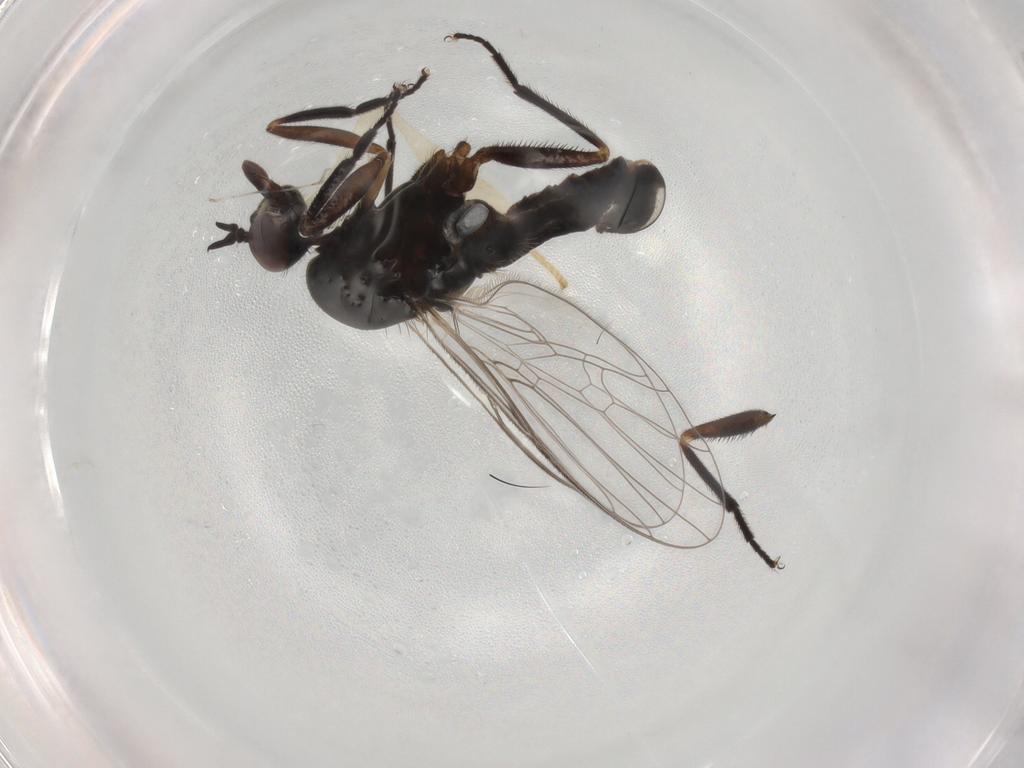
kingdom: Animalia
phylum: Arthropoda
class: Insecta
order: Diptera
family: Empididae
